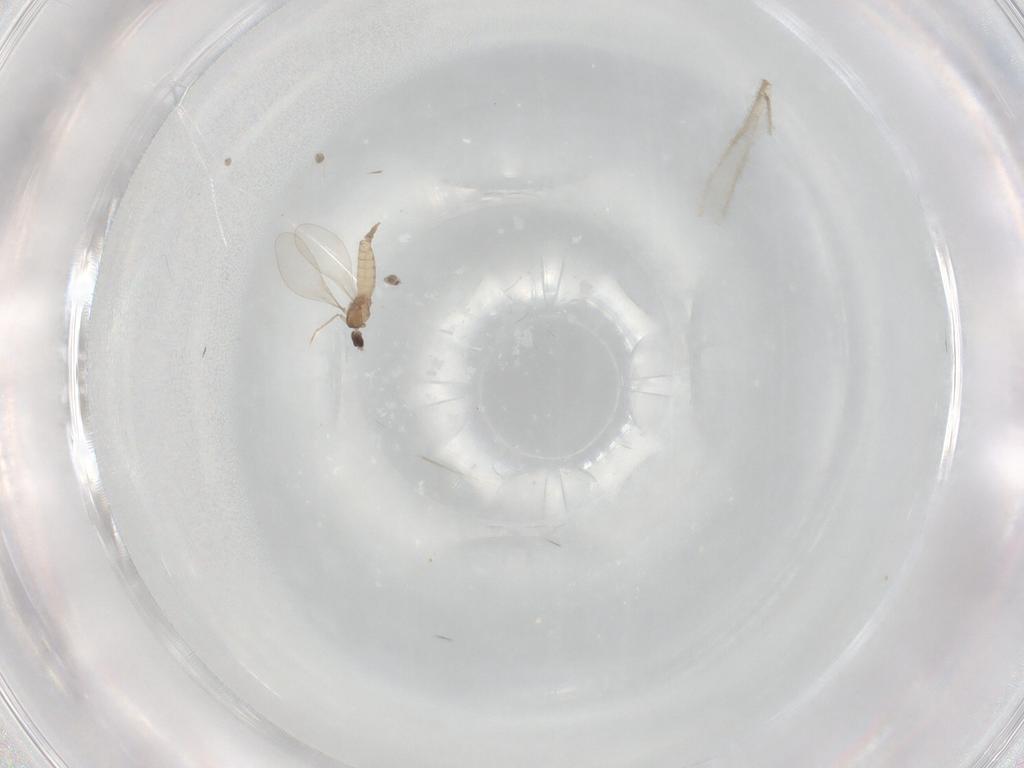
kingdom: Animalia
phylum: Arthropoda
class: Insecta
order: Diptera
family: Cecidomyiidae
